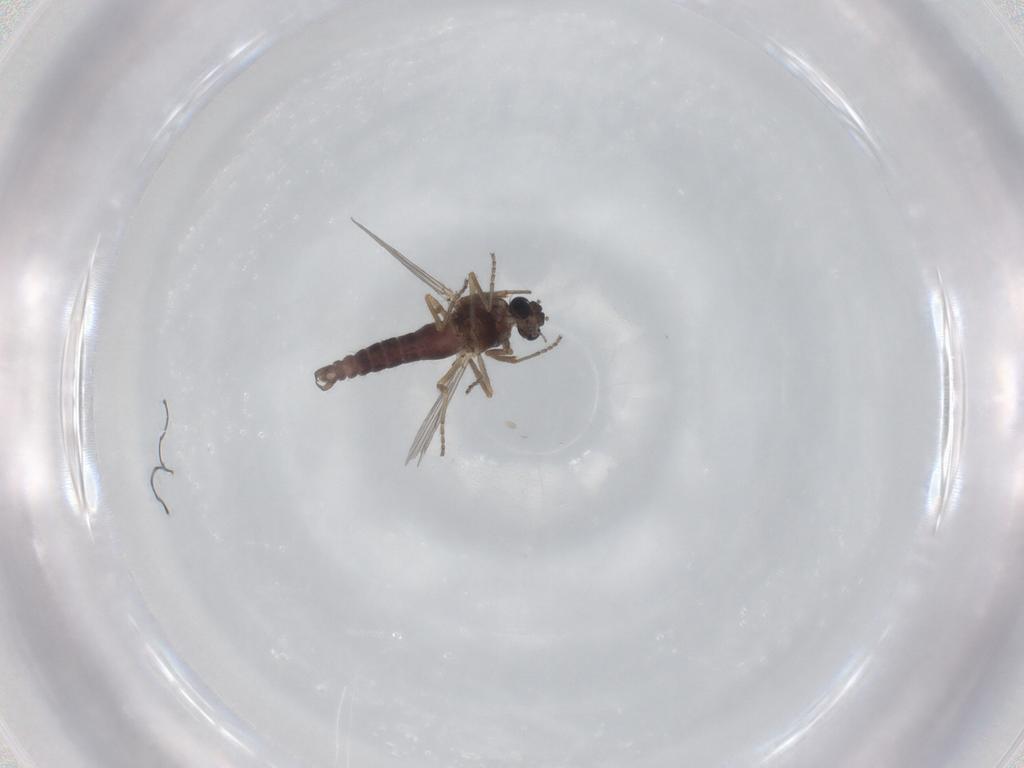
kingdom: Animalia
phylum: Arthropoda
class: Insecta
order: Diptera
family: Ceratopogonidae
